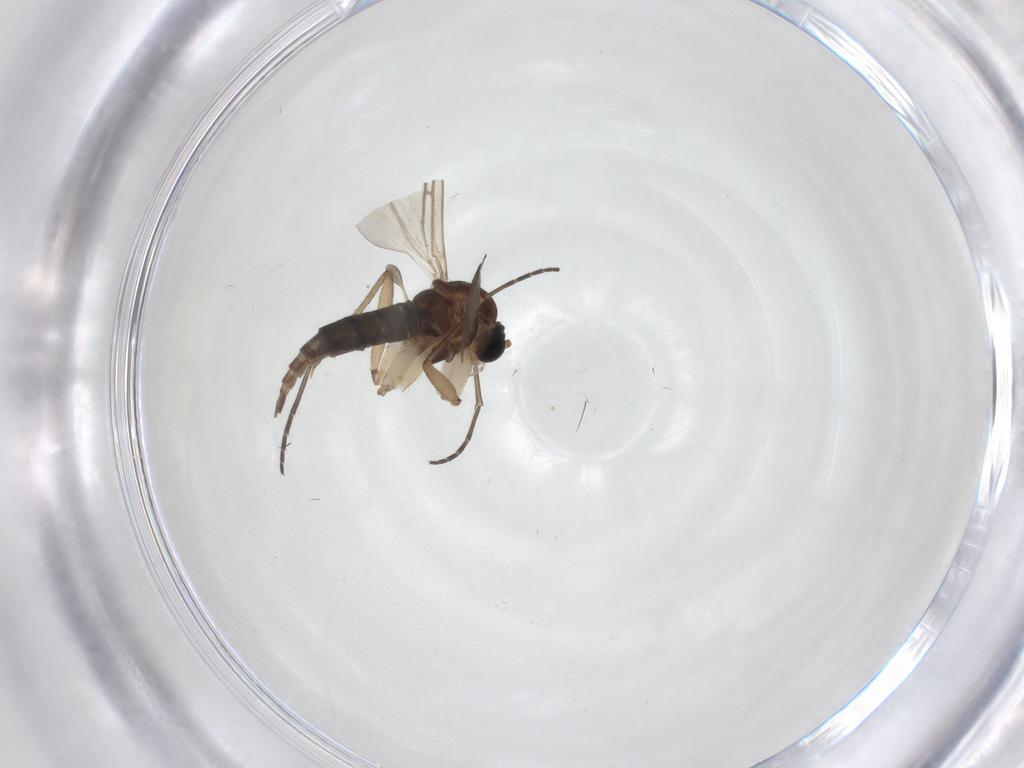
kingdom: Animalia
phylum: Arthropoda
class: Insecta
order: Diptera
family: Sciaridae
